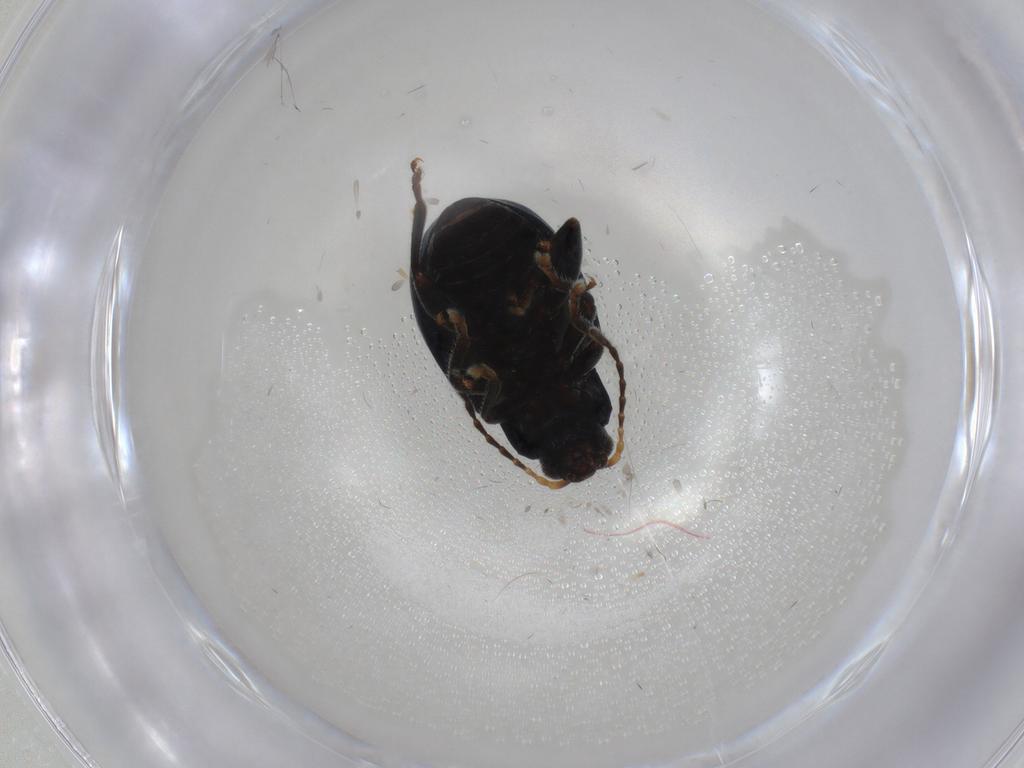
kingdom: Animalia
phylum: Arthropoda
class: Insecta
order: Coleoptera
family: Chrysomelidae
